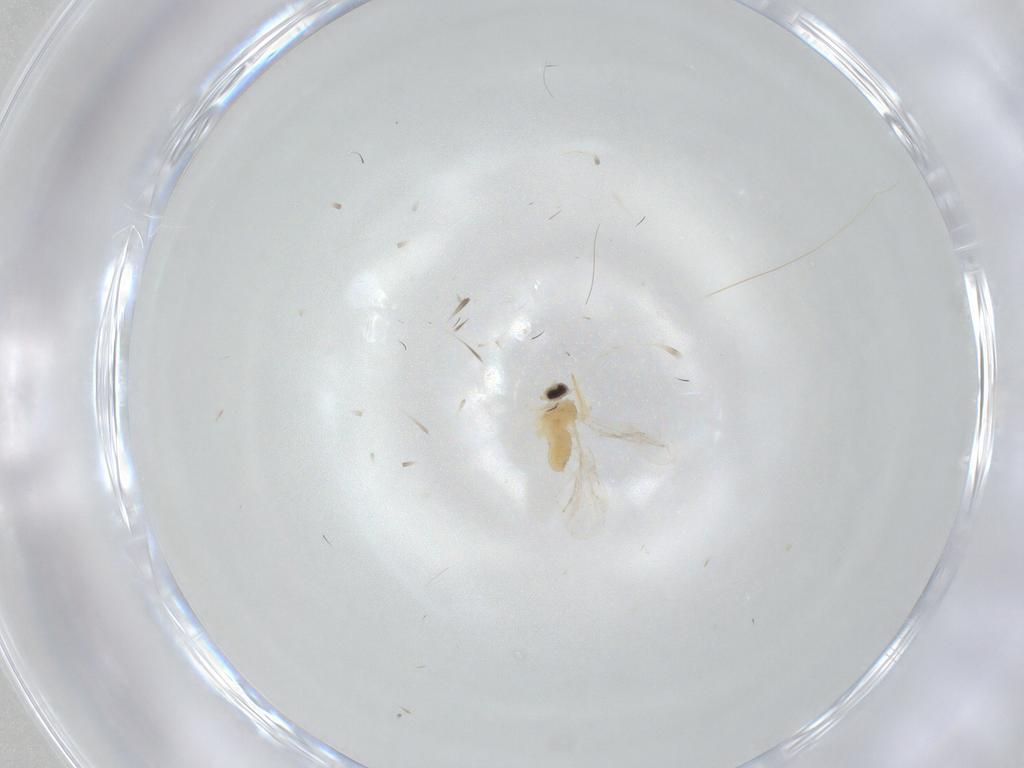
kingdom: Animalia
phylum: Arthropoda
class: Insecta
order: Diptera
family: Cecidomyiidae
